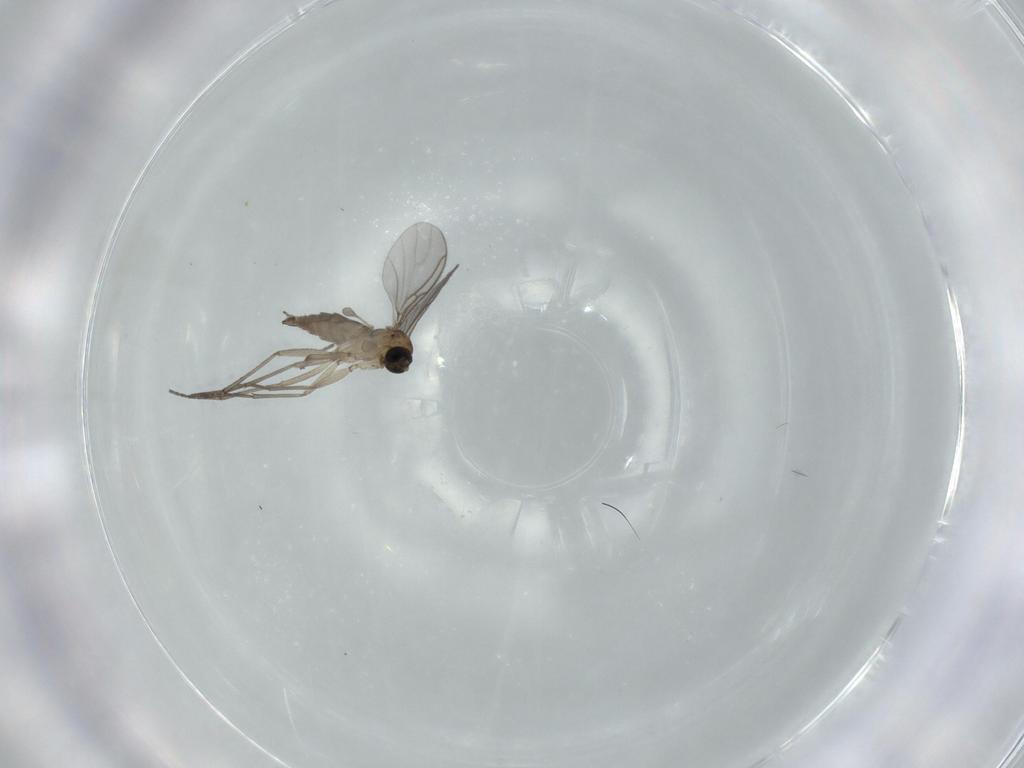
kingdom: Animalia
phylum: Arthropoda
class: Insecta
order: Diptera
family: Sciaridae
